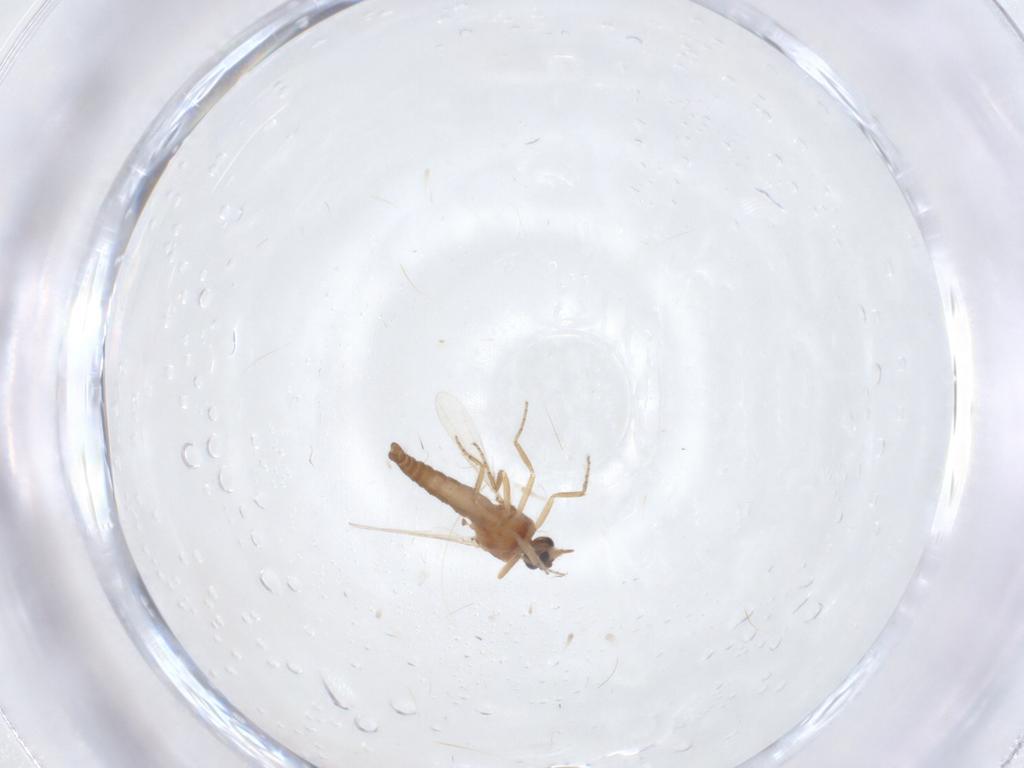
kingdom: Animalia
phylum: Arthropoda
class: Insecta
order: Diptera
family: Ceratopogonidae
